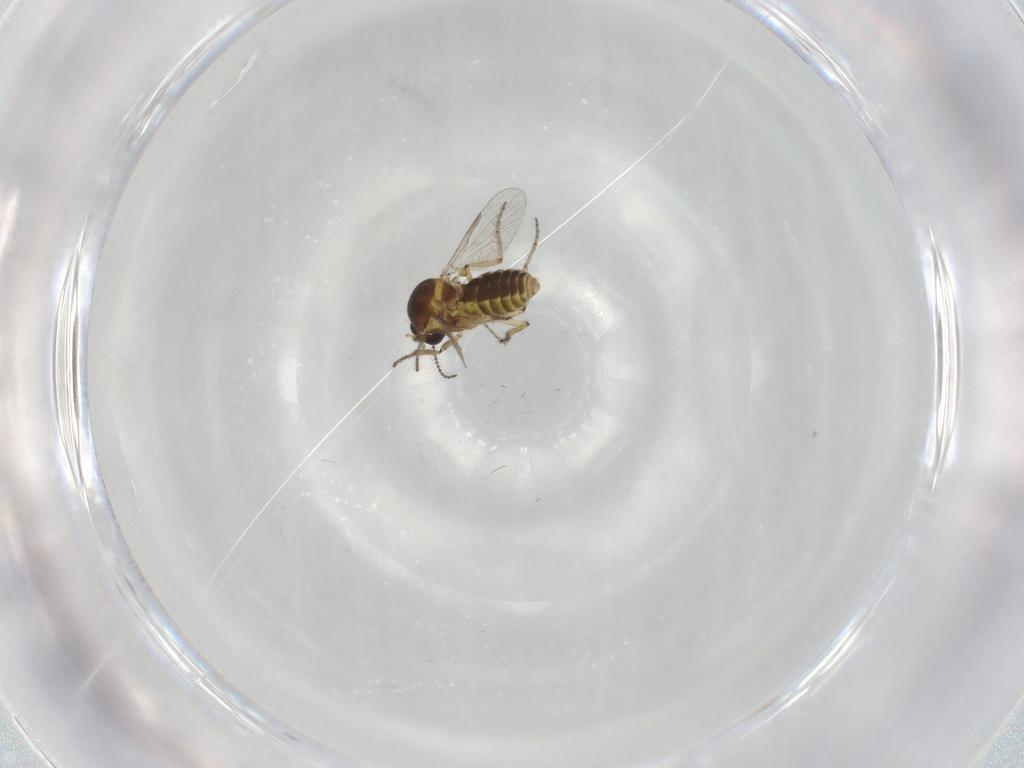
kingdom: Animalia
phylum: Arthropoda
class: Insecta
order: Diptera
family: Ceratopogonidae
